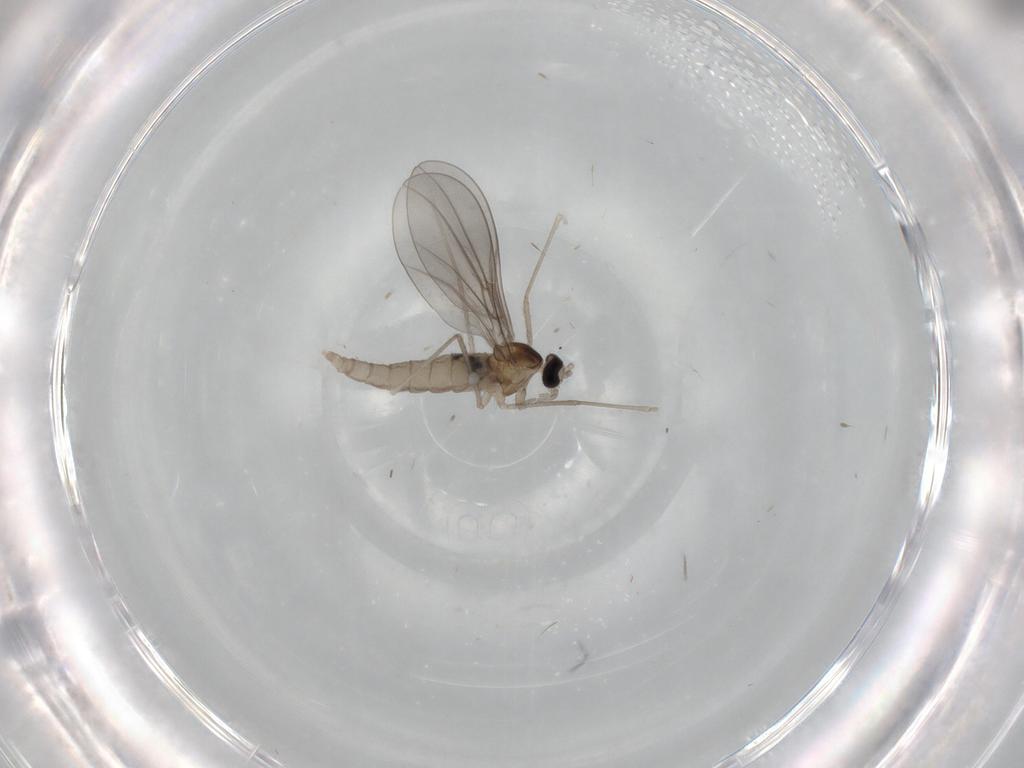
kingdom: Animalia
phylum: Arthropoda
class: Insecta
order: Diptera
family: Cecidomyiidae
